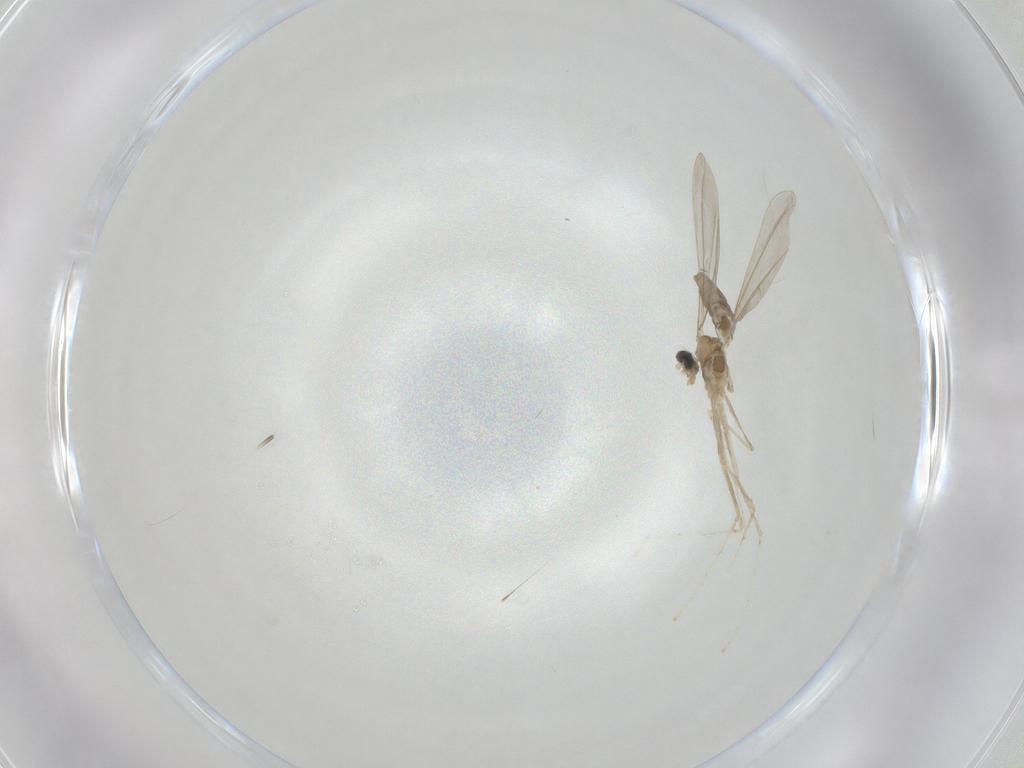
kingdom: Animalia
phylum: Arthropoda
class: Insecta
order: Diptera
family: Cecidomyiidae
